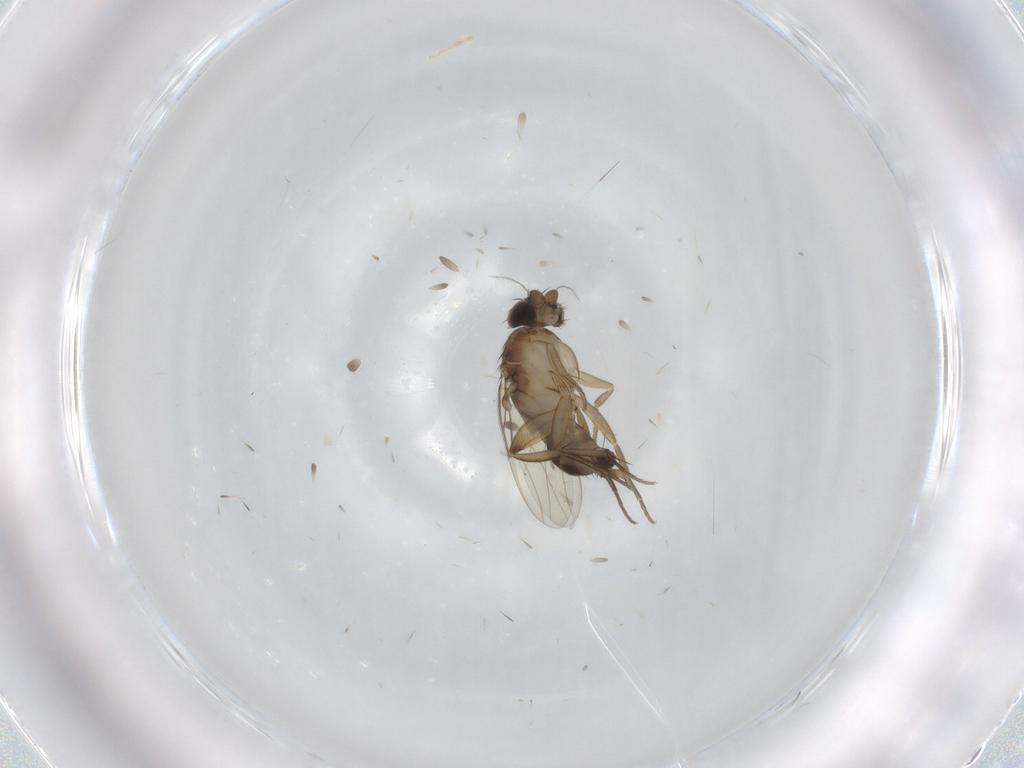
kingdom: Animalia
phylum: Arthropoda
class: Insecta
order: Diptera
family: Phoridae
